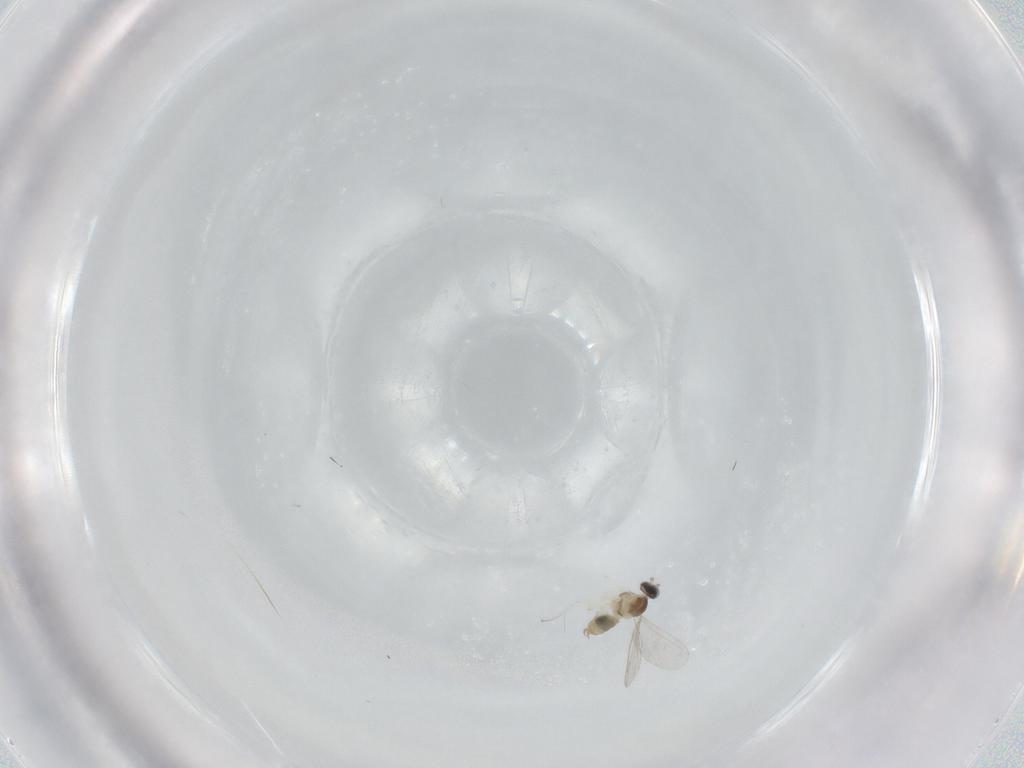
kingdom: Animalia
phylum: Arthropoda
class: Insecta
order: Diptera
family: Cecidomyiidae
